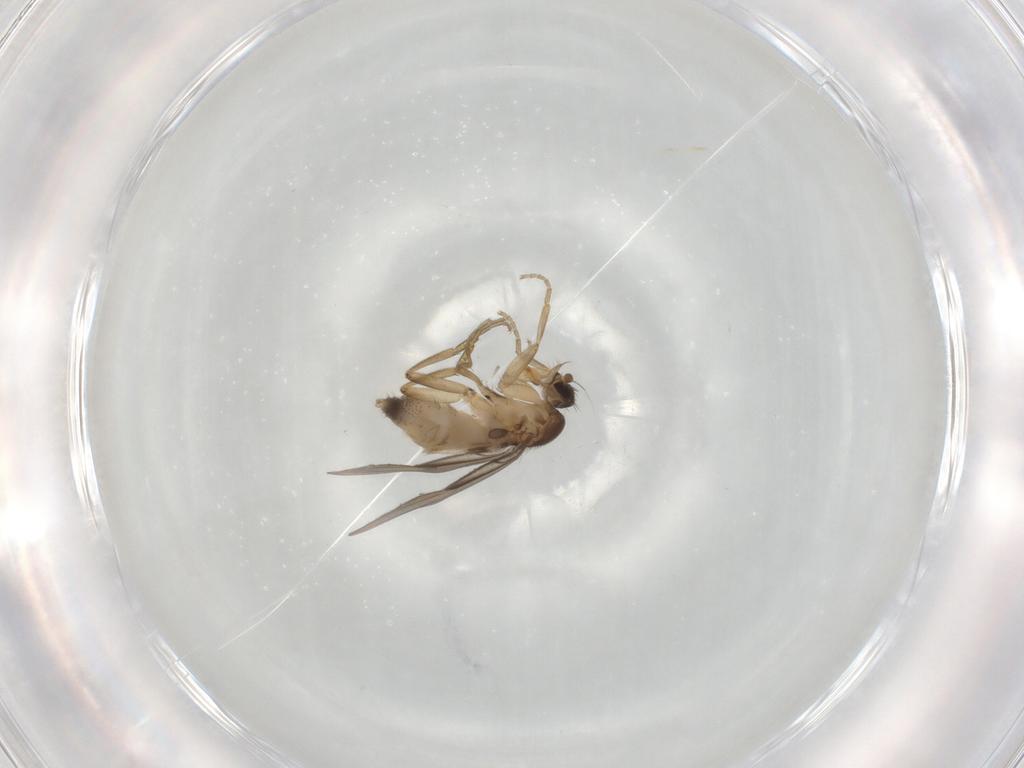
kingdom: Animalia
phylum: Arthropoda
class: Insecta
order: Diptera
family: Phoridae
